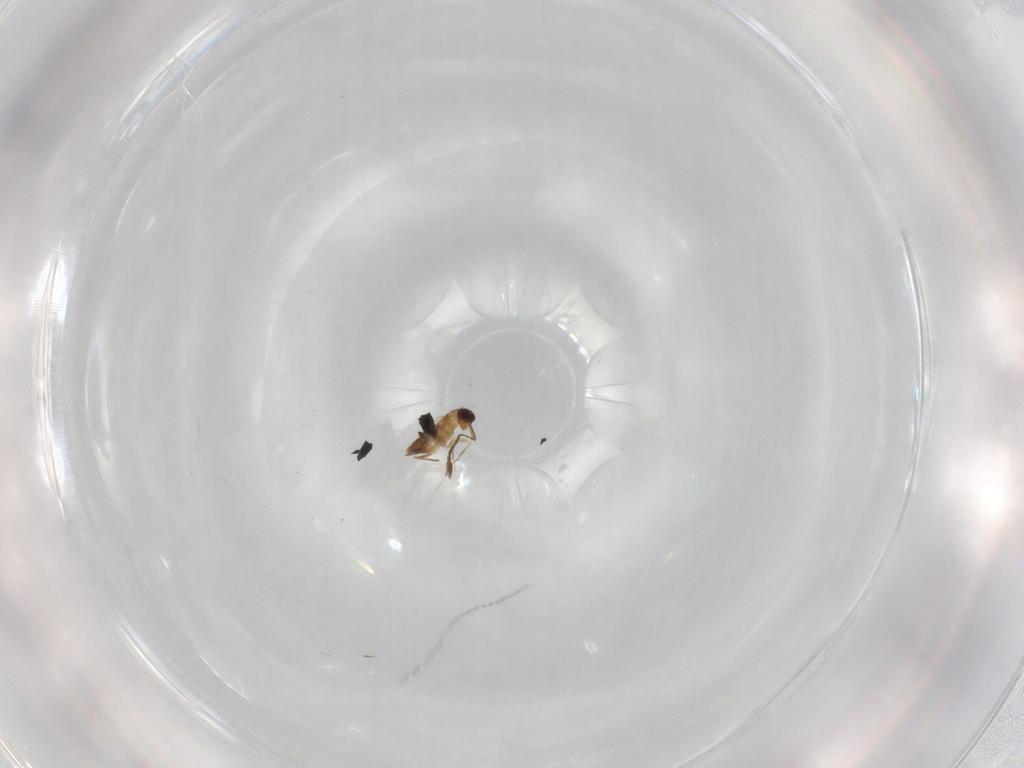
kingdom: Animalia
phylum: Arthropoda
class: Insecta
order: Hymenoptera
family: Mymaridae
